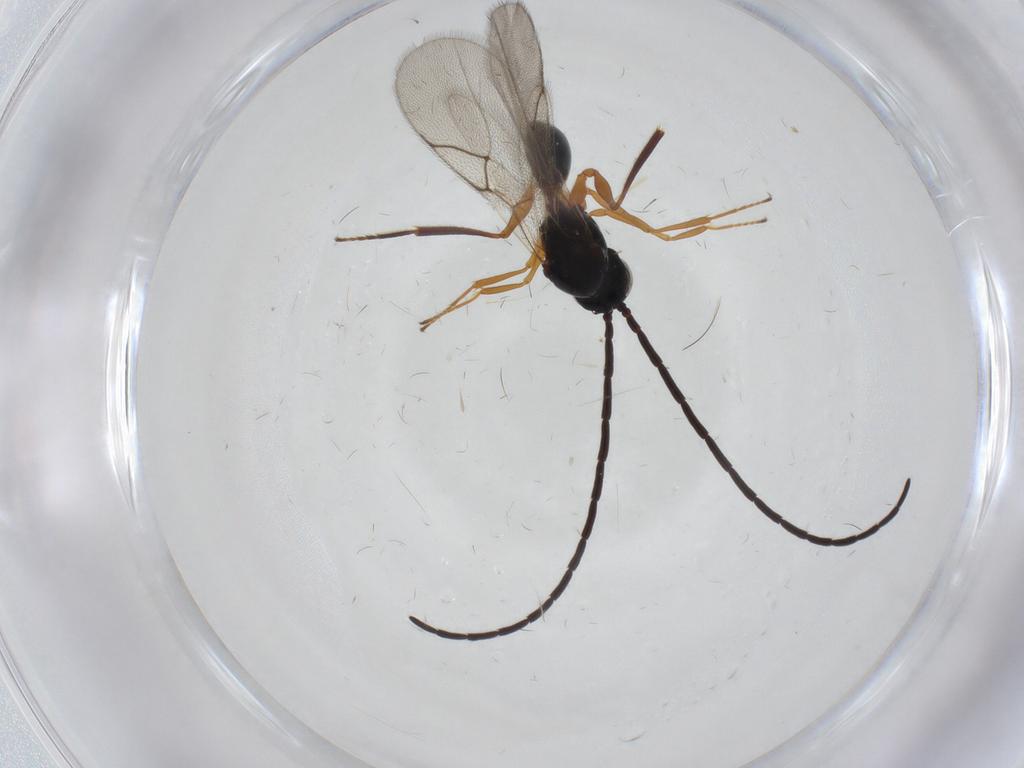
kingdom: Animalia
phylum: Arthropoda
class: Insecta
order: Hymenoptera
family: Figitidae
